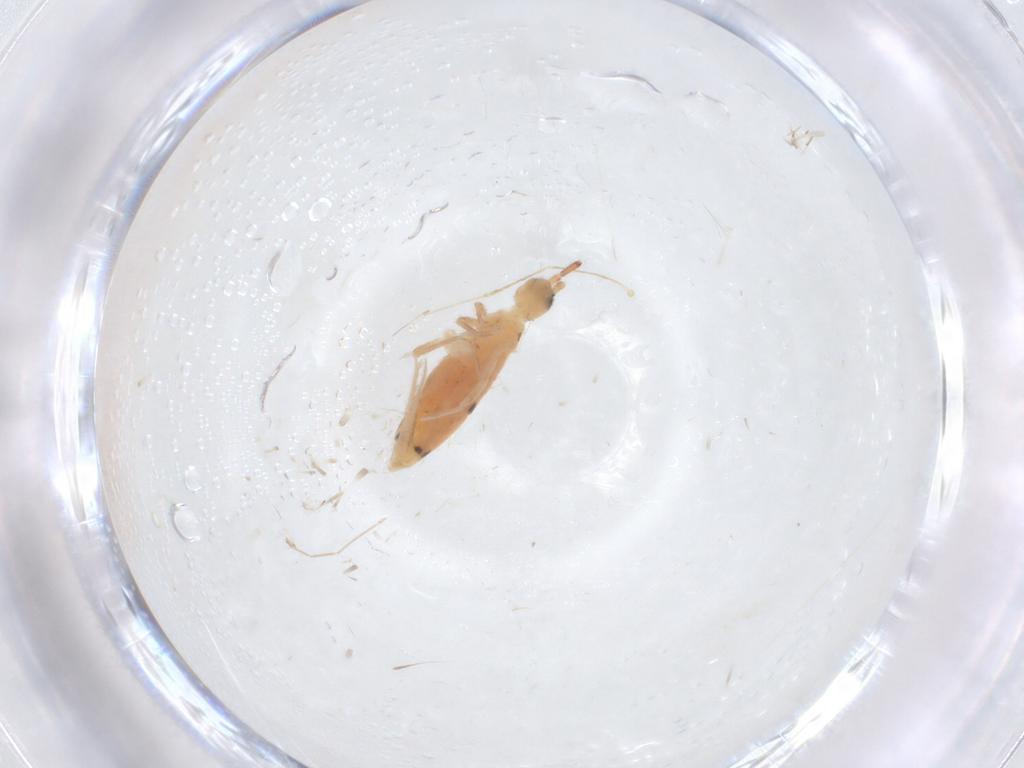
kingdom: Animalia
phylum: Arthropoda
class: Collembola
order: Entomobryomorpha
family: Entomobryidae
